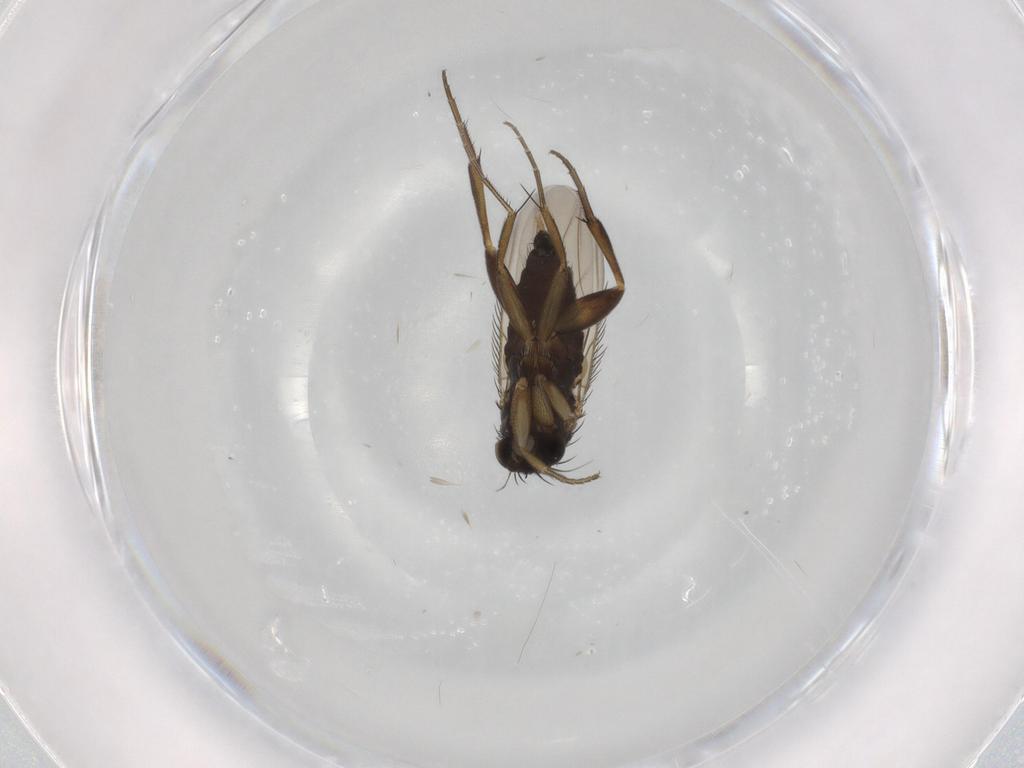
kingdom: Animalia
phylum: Arthropoda
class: Insecta
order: Diptera
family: Phoridae
